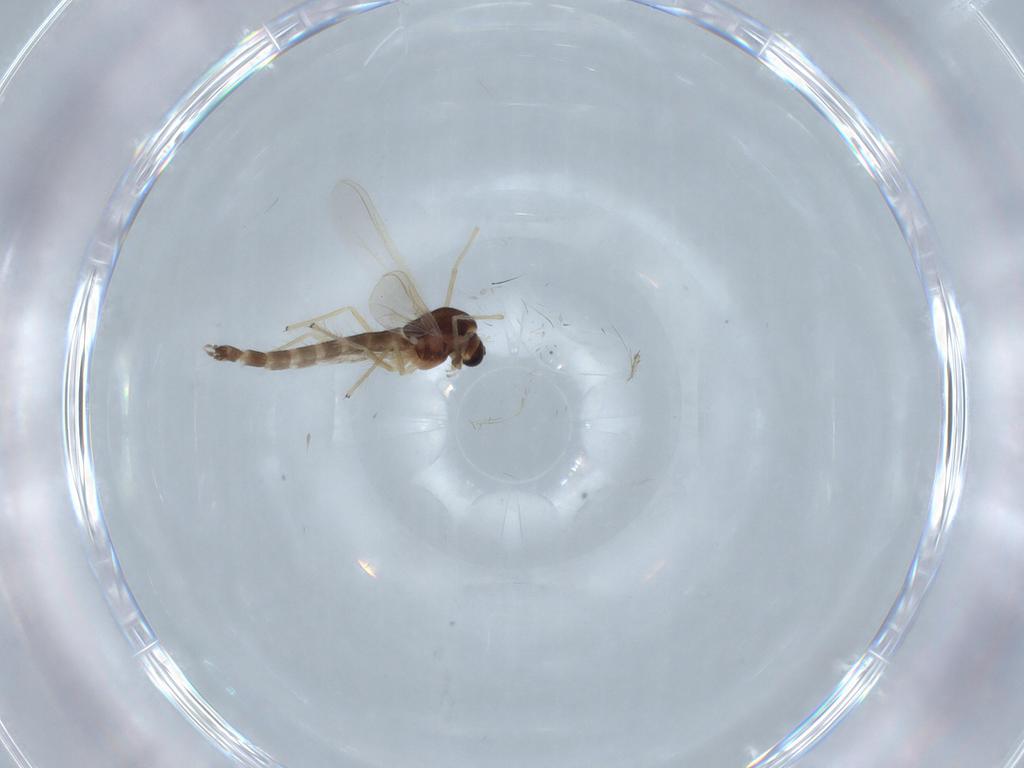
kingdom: Animalia
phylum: Arthropoda
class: Insecta
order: Diptera
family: Chironomidae
